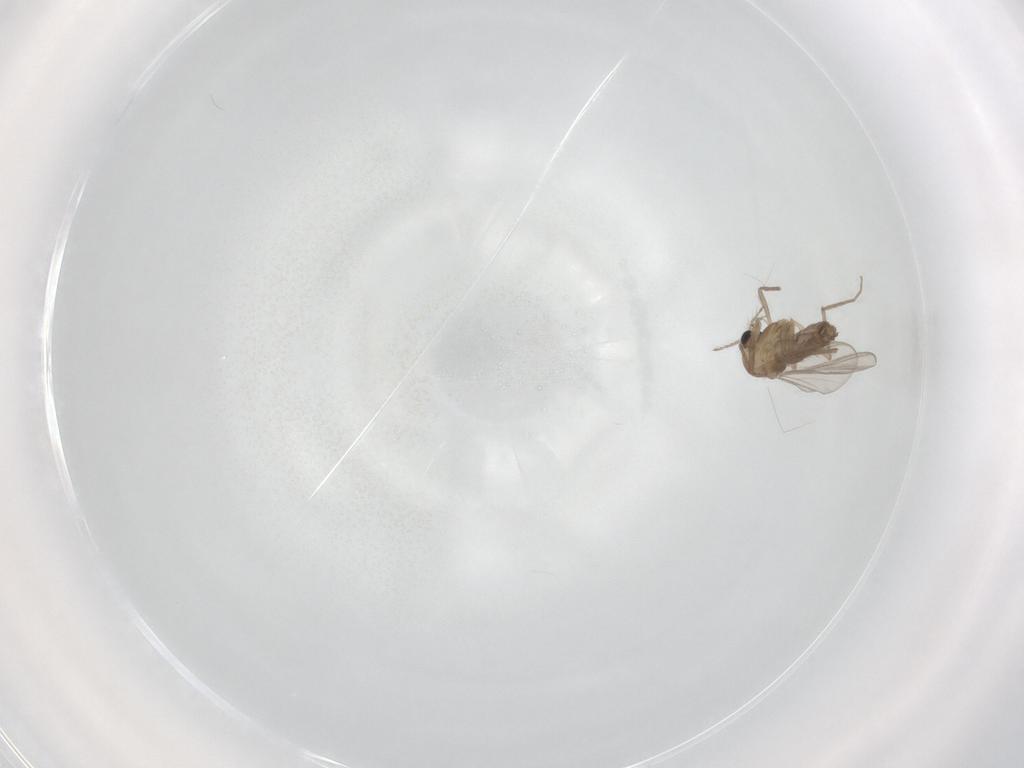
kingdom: Animalia
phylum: Arthropoda
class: Insecta
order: Diptera
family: Chironomidae
